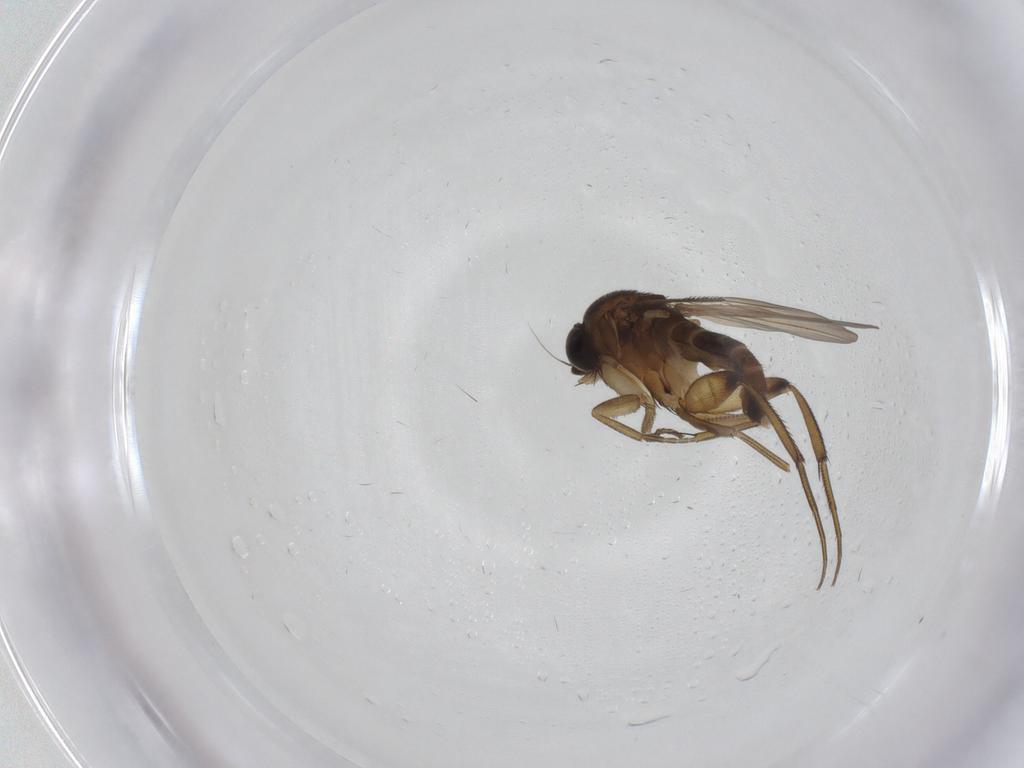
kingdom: Animalia
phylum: Arthropoda
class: Insecta
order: Diptera
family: Phoridae
